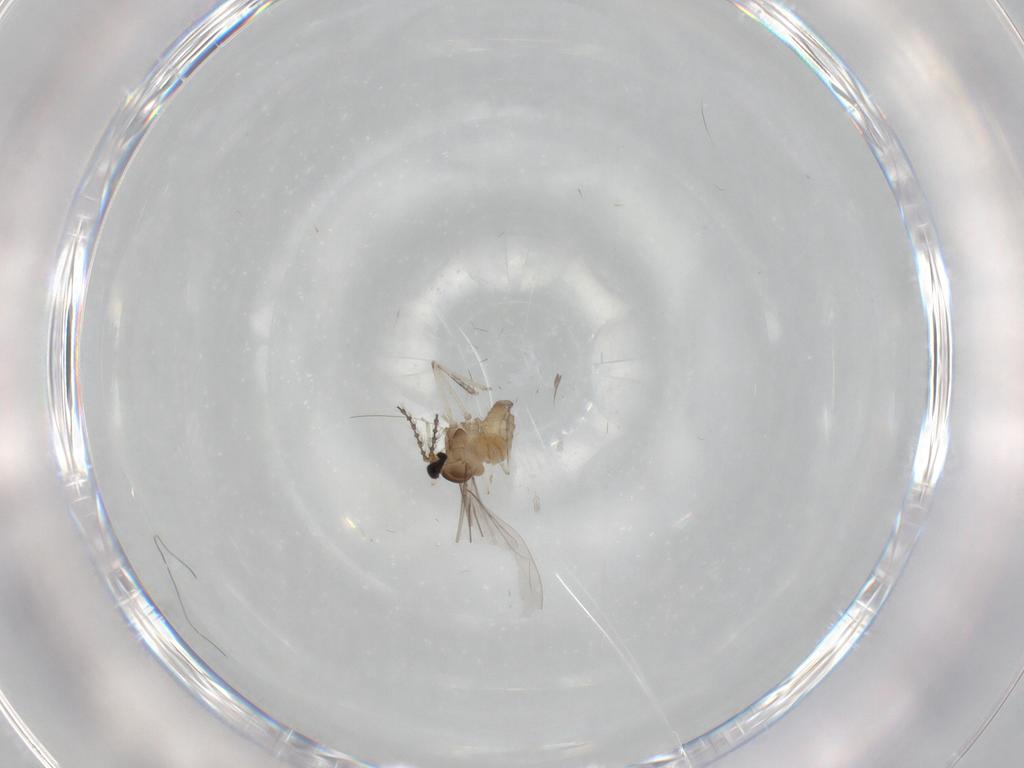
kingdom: Animalia
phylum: Arthropoda
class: Insecta
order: Diptera
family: Cecidomyiidae
